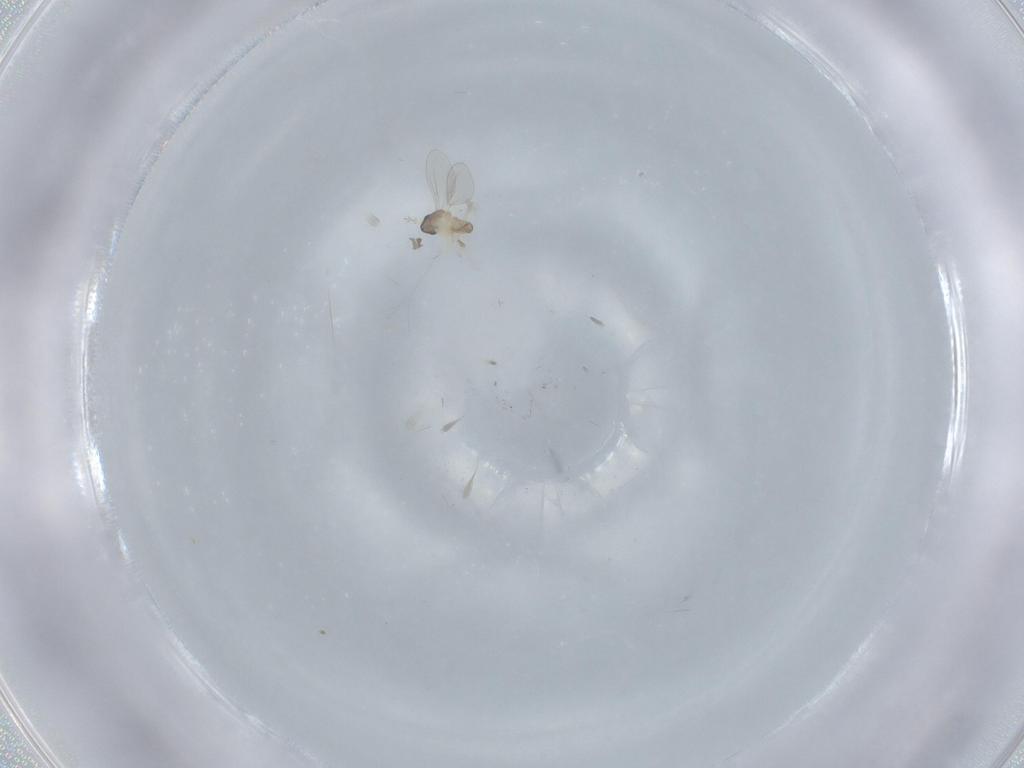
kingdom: Animalia
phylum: Arthropoda
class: Insecta
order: Diptera
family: Cecidomyiidae
